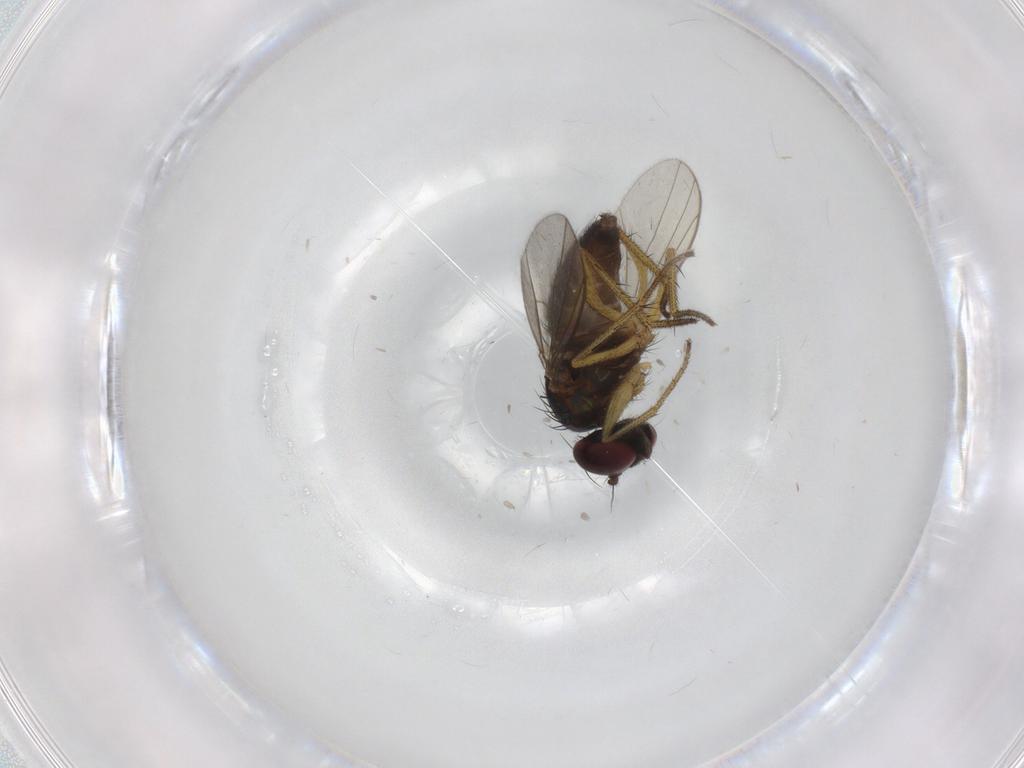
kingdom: Animalia
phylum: Arthropoda
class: Insecta
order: Diptera
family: Dolichopodidae
